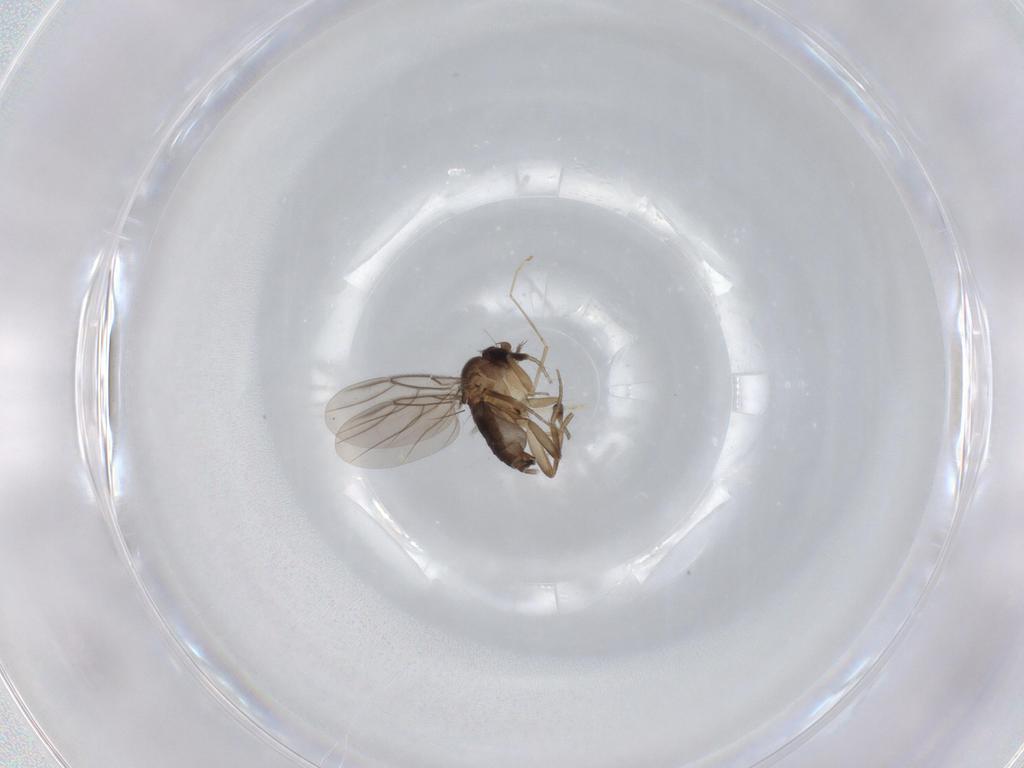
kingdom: Animalia
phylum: Arthropoda
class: Insecta
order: Diptera
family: Phoridae
